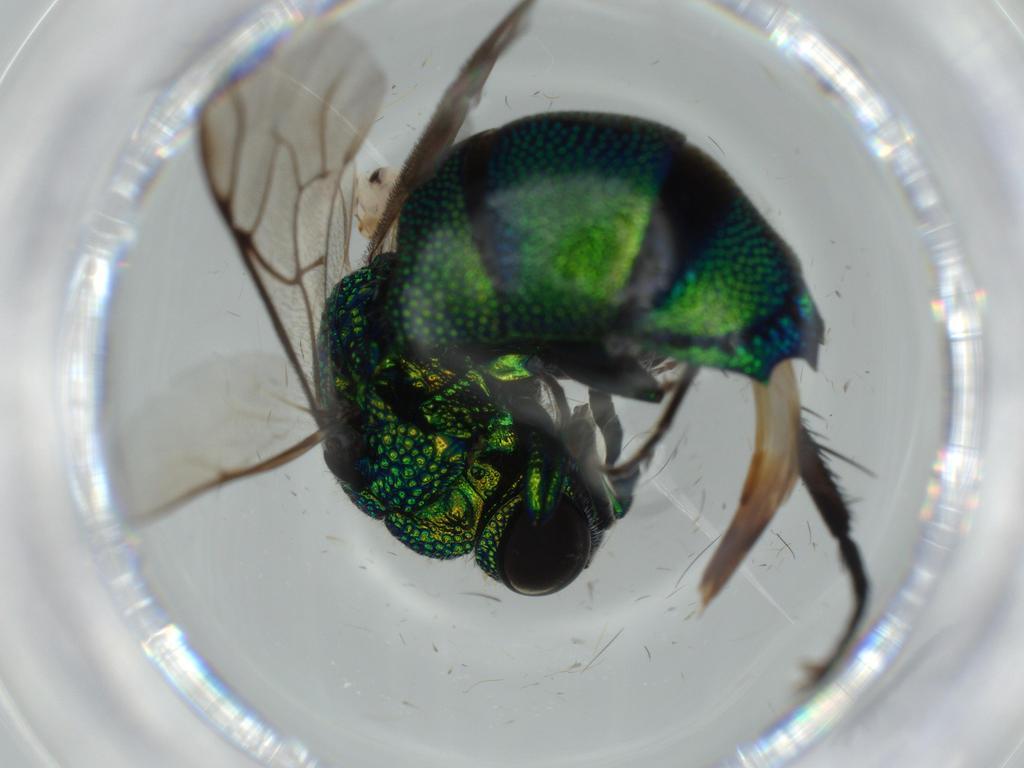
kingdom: Animalia
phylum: Arthropoda
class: Insecta
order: Hymenoptera
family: Chrysididae
